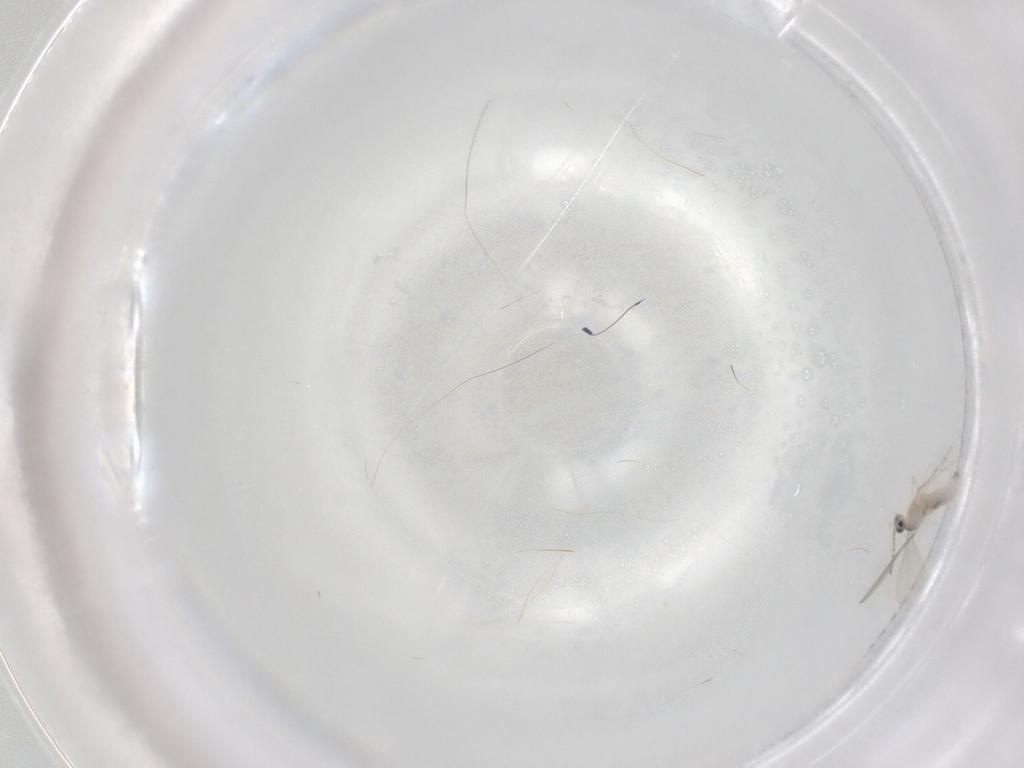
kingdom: Animalia
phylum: Arthropoda
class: Insecta
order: Diptera
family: Cecidomyiidae
